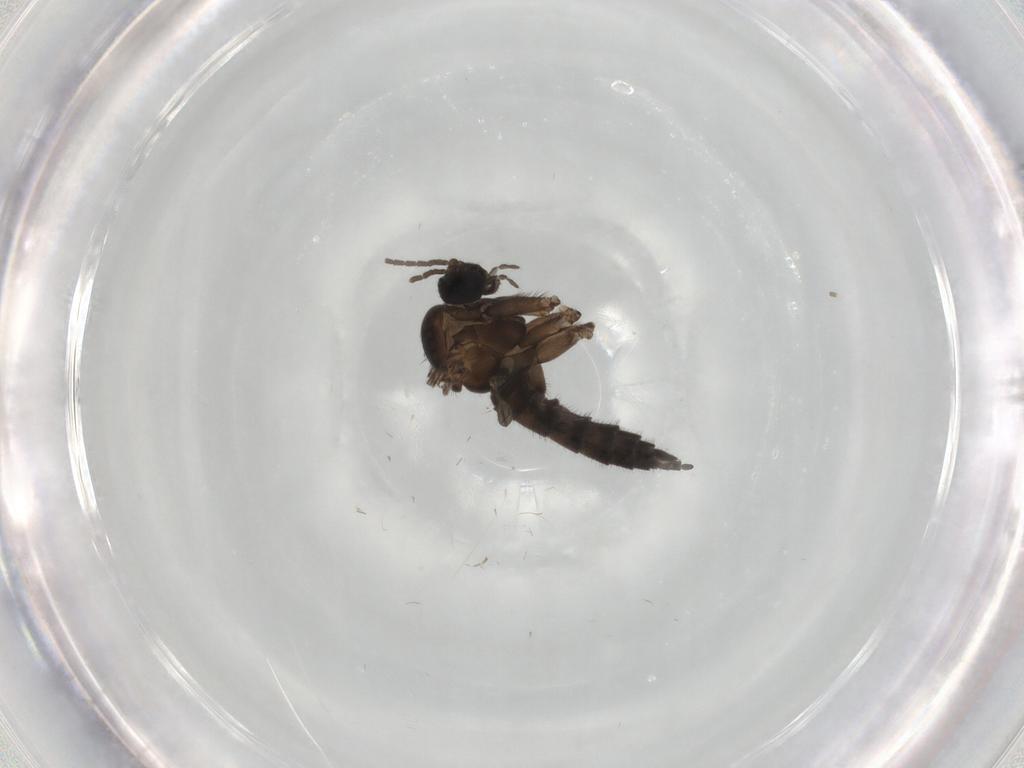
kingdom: Animalia
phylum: Arthropoda
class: Insecta
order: Diptera
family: Sciaridae
